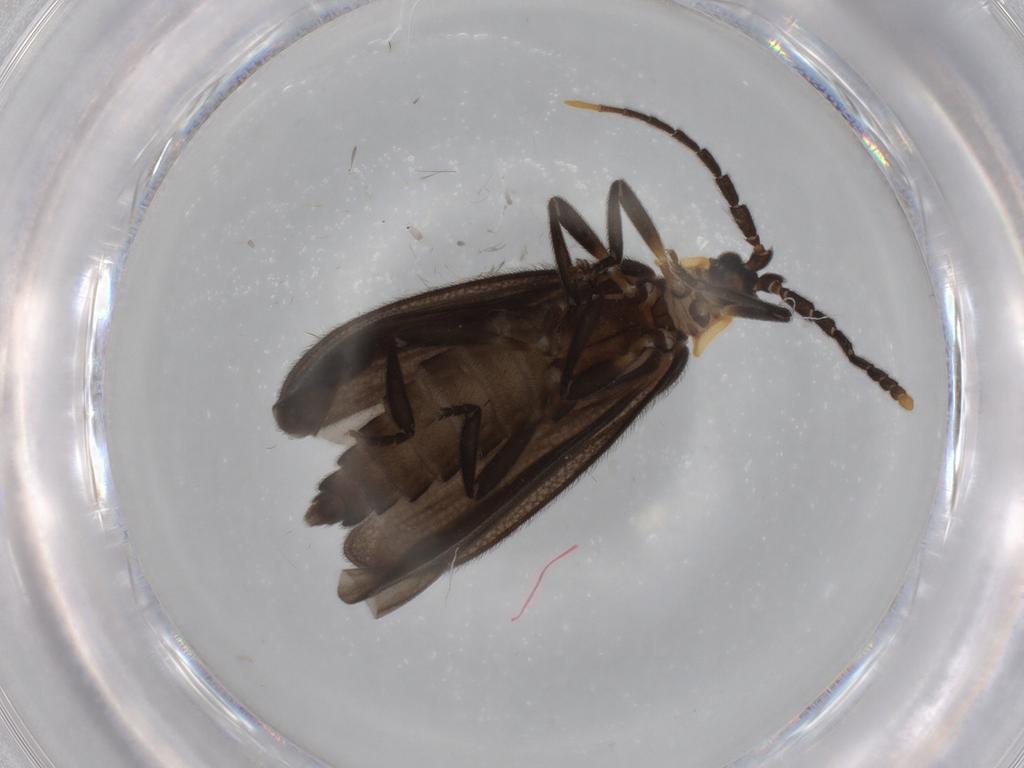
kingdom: Animalia
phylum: Arthropoda
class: Insecta
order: Coleoptera
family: Lycidae
